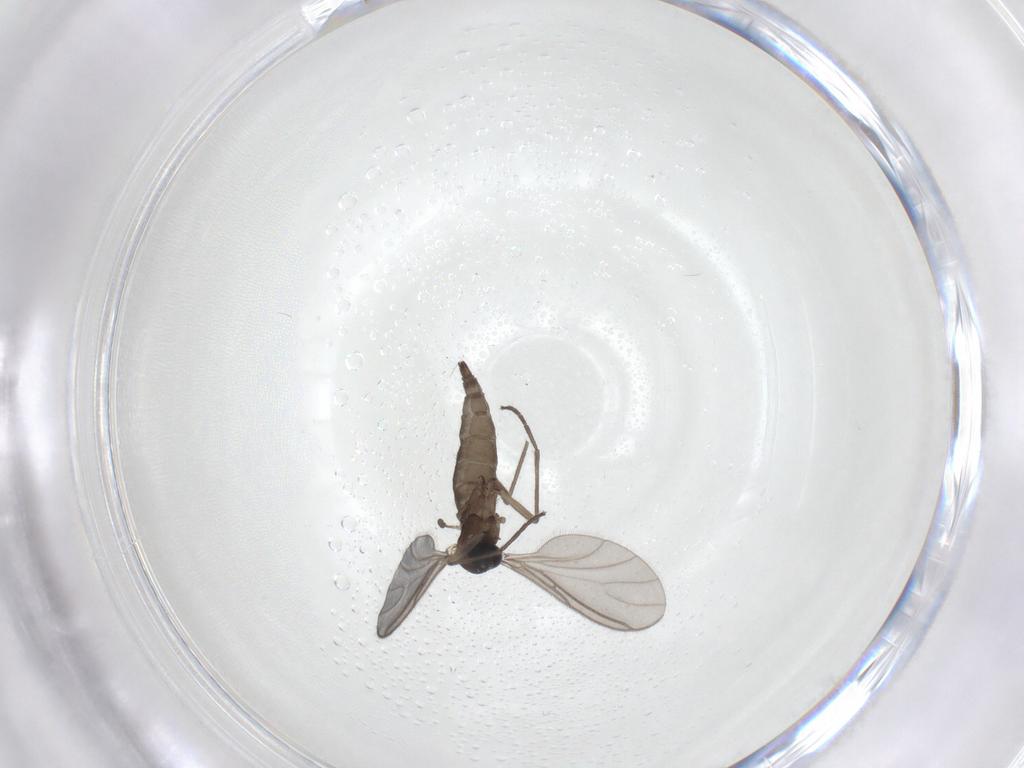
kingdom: Animalia
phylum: Arthropoda
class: Insecta
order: Diptera
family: Sciaridae
